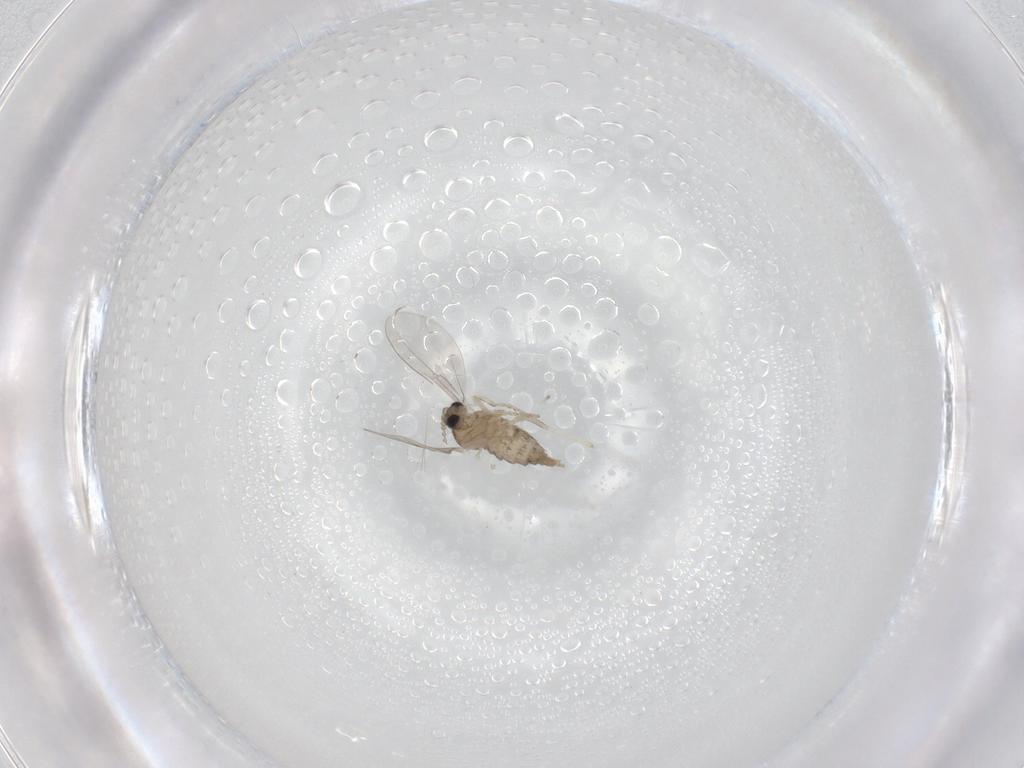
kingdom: Animalia
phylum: Arthropoda
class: Insecta
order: Diptera
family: Cecidomyiidae
